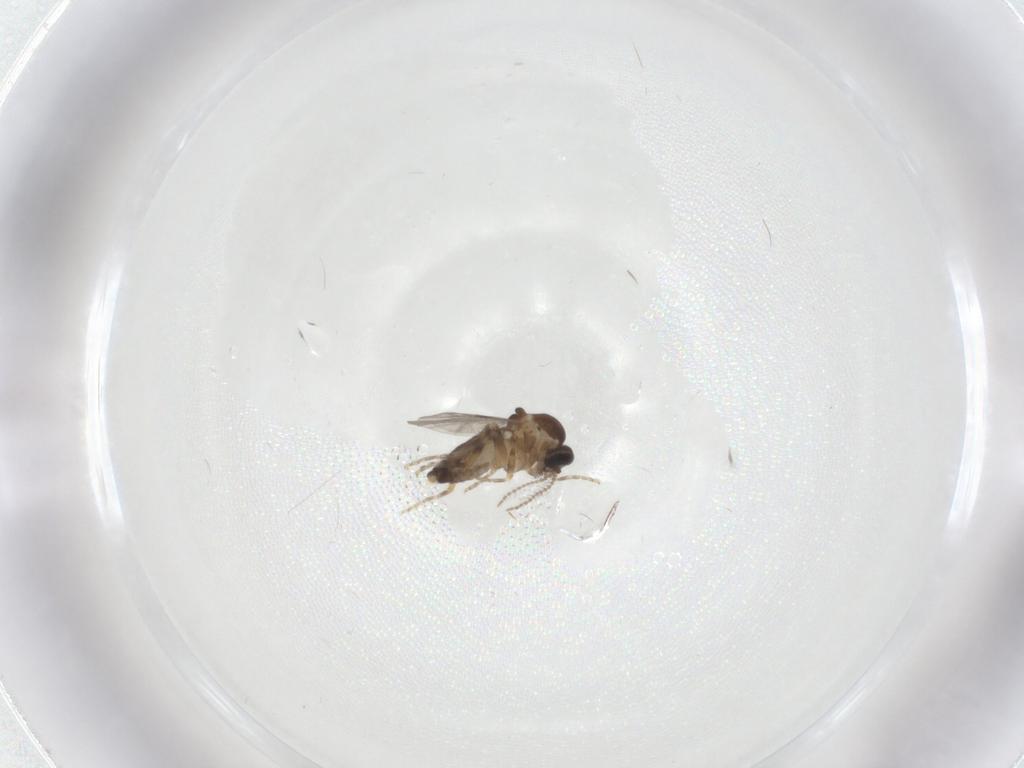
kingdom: Animalia
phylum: Arthropoda
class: Insecta
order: Diptera
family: Ceratopogonidae
